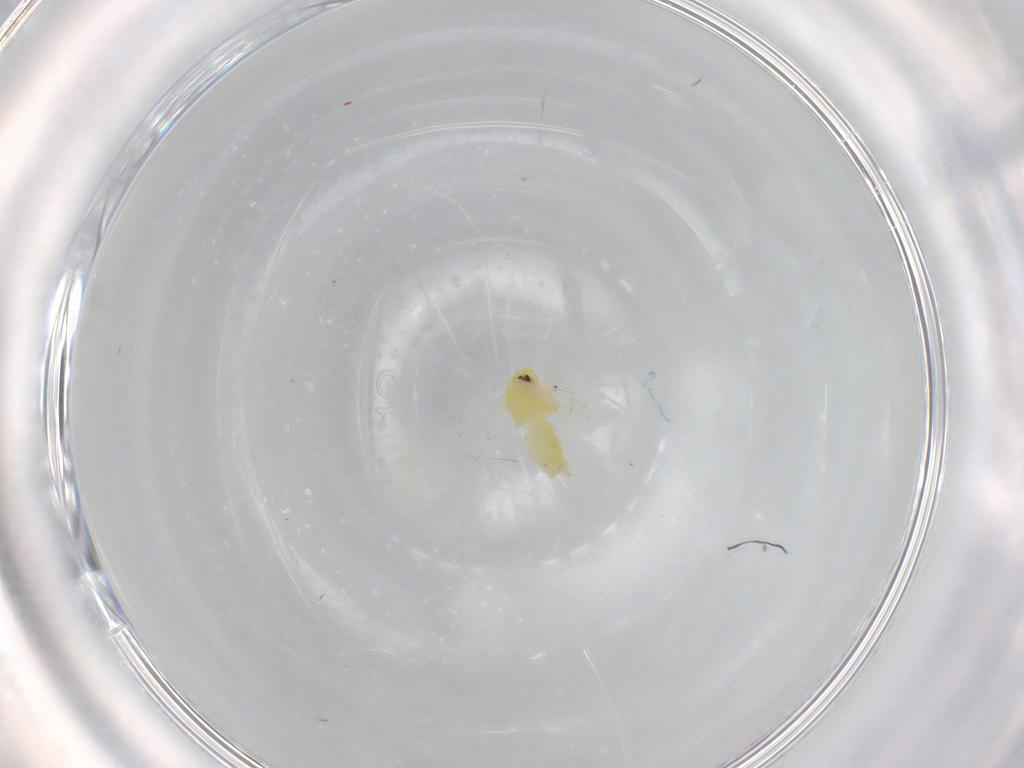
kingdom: Animalia
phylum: Arthropoda
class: Insecta
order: Hemiptera
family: Aleyrodidae
